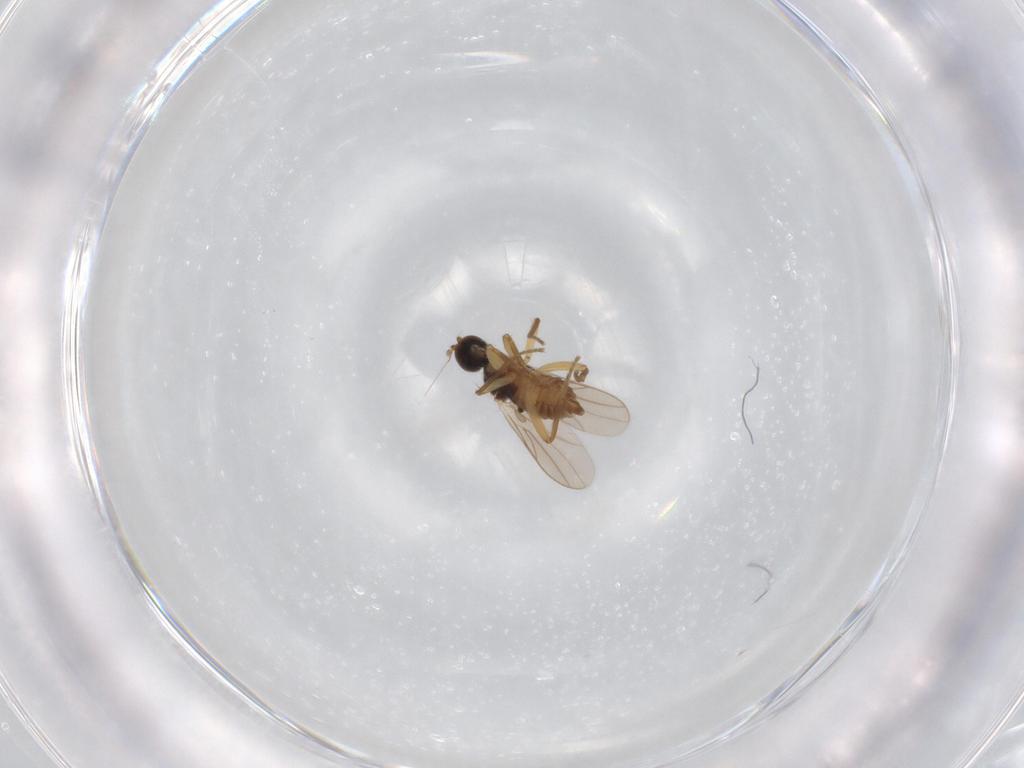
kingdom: Animalia
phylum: Arthropoda
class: Insecta
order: Diptera
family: Hybotidae
